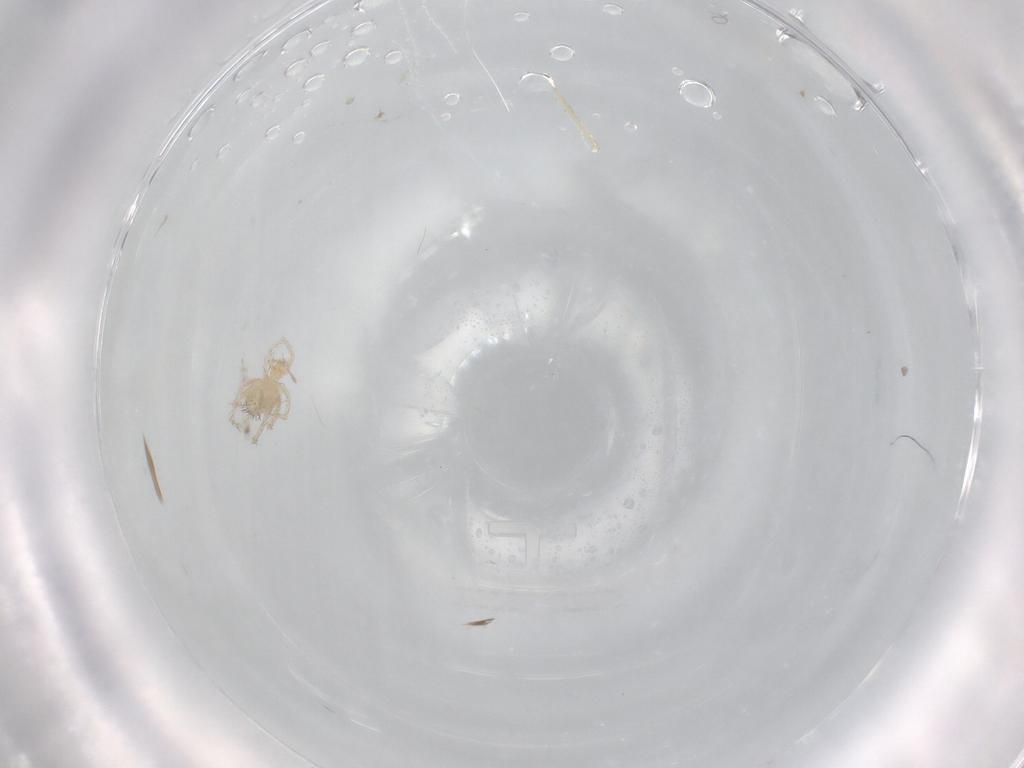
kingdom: Animalia
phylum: Arthropoda
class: Arachnida
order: Trombidiformes
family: Erythraeidae
